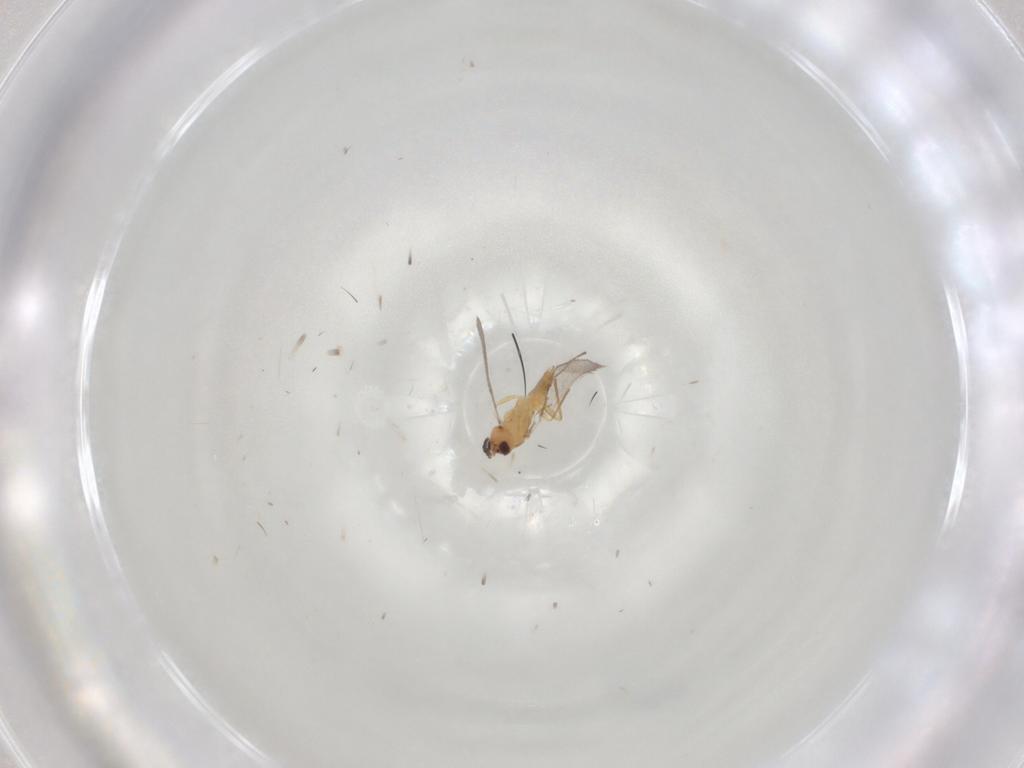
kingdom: Animalia
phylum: Arthropoda
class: Insecta
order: Hymenoptera
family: Mymaridae
